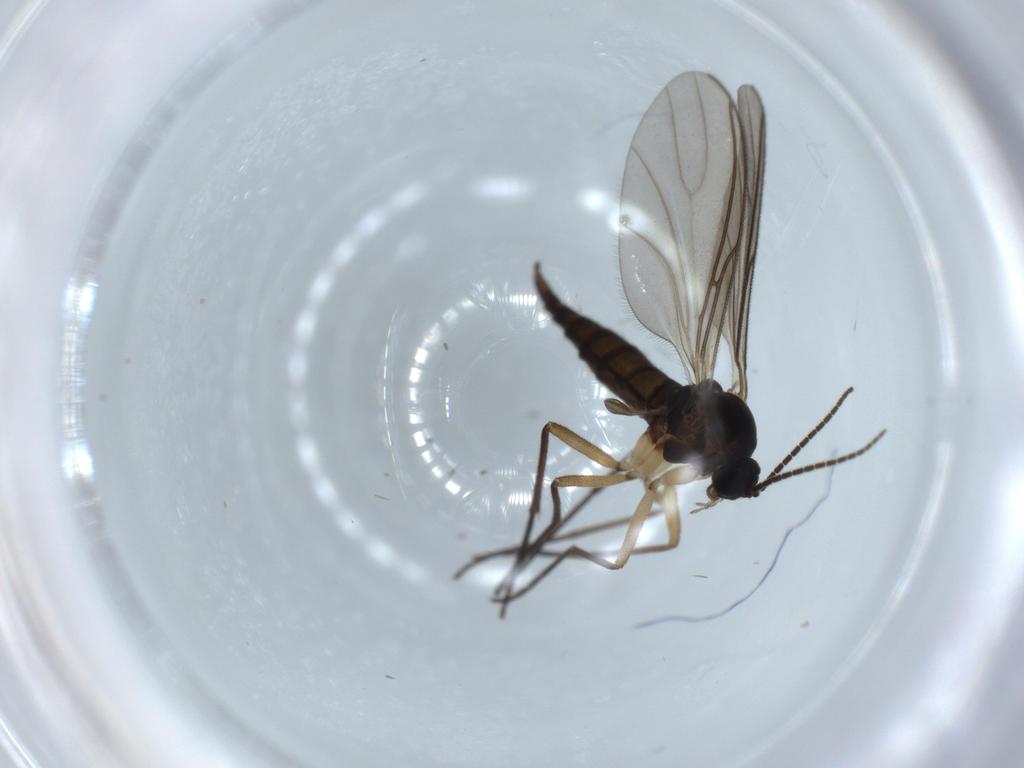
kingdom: Animalia
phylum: Arthropoda
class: Insecta
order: Diptera
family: Sciaridae
